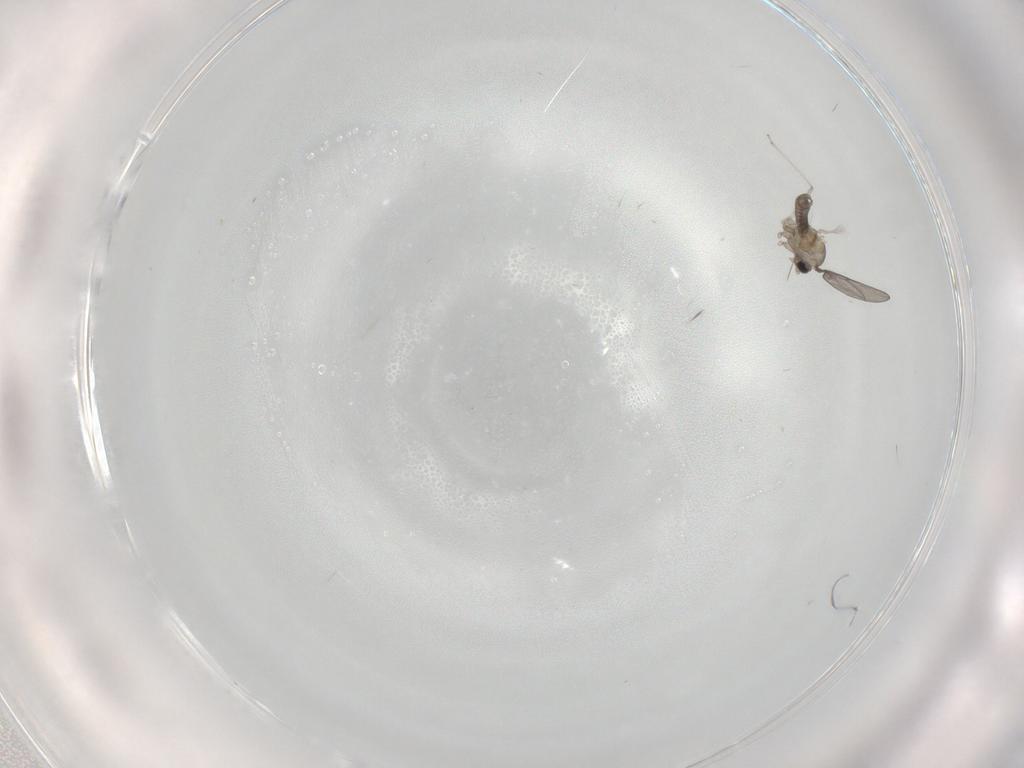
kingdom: Animalia
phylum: Arthropoda
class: Insecta
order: Diptera
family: Cecidomyiidae
